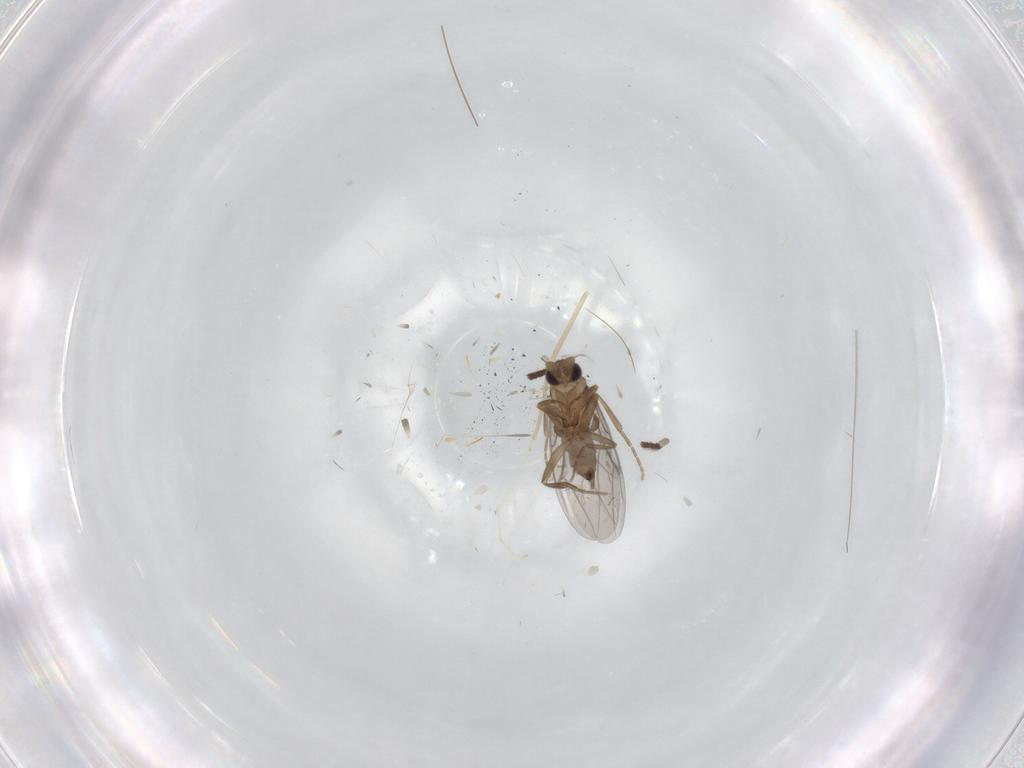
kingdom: Animalia
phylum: Arthropoda
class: Insecta
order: Diptera
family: Cecidomyiidae
